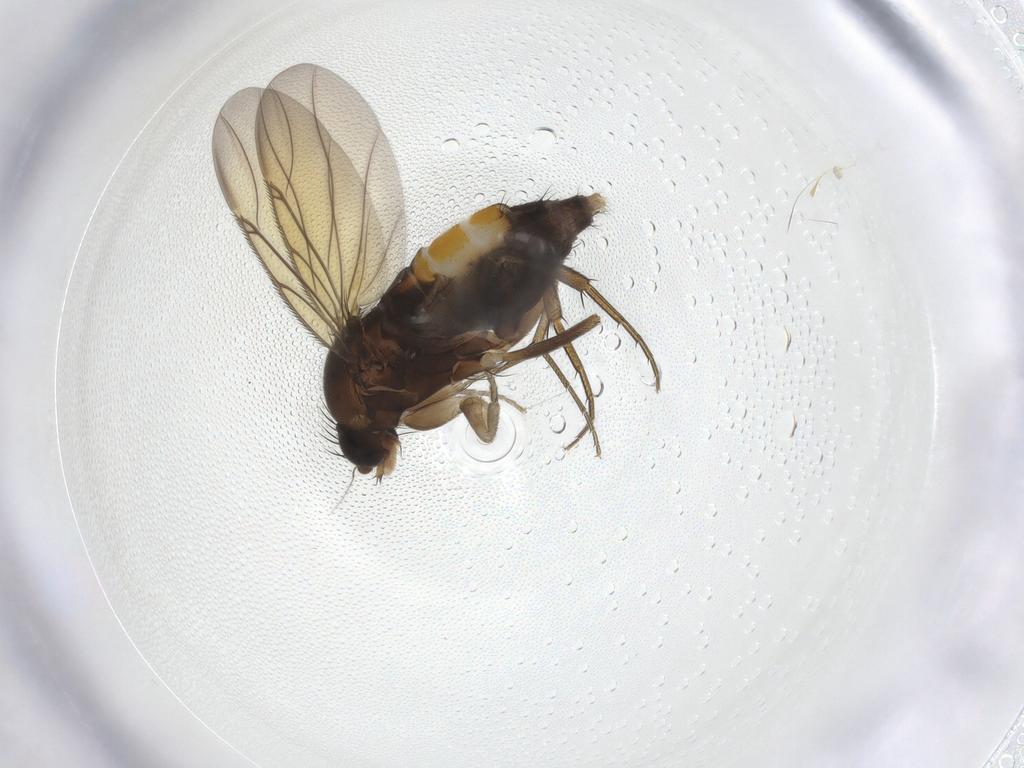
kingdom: Animalia
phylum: Arthropoda
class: Insecta
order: Diptera
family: Phoridae
